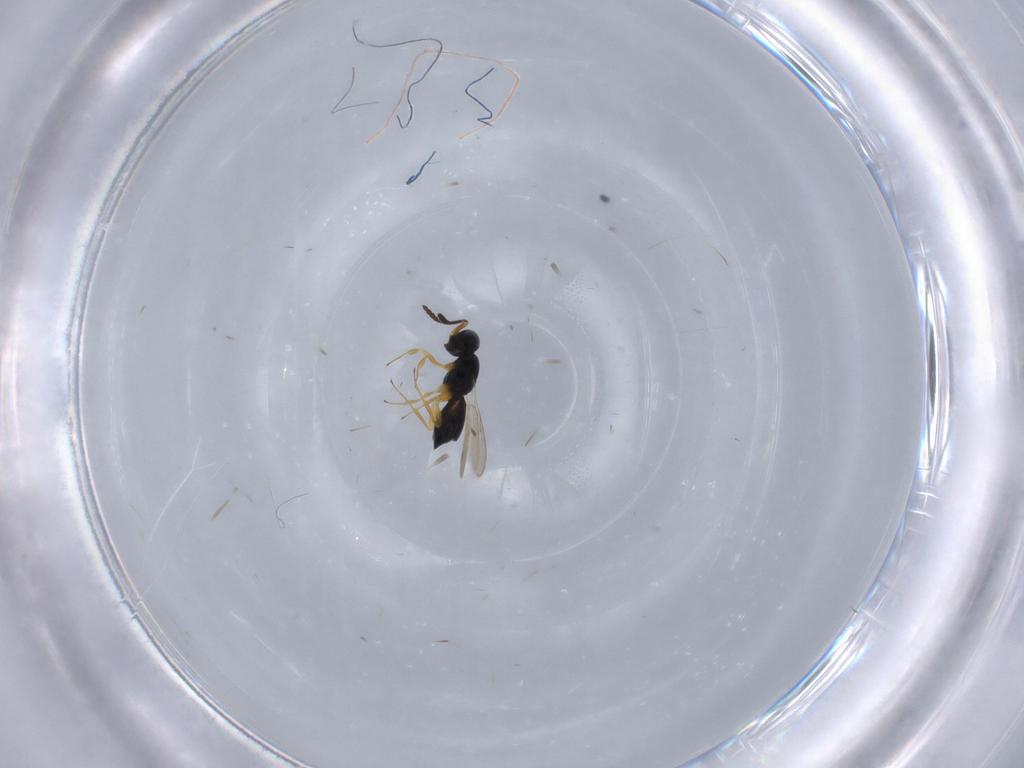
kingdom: Animalia
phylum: Arthropoda
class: Insecta
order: Hymenoptera
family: Scelionidae
